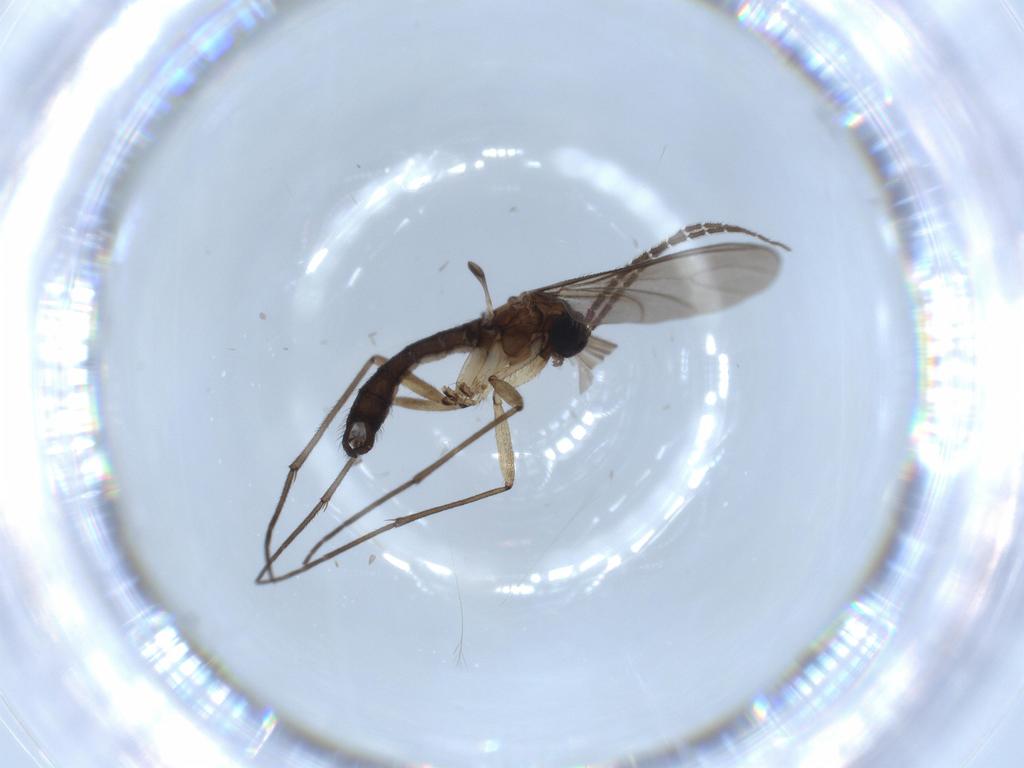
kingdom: Animalia
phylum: Arthropoda
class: Insecta
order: Diptera
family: Sciaridae
